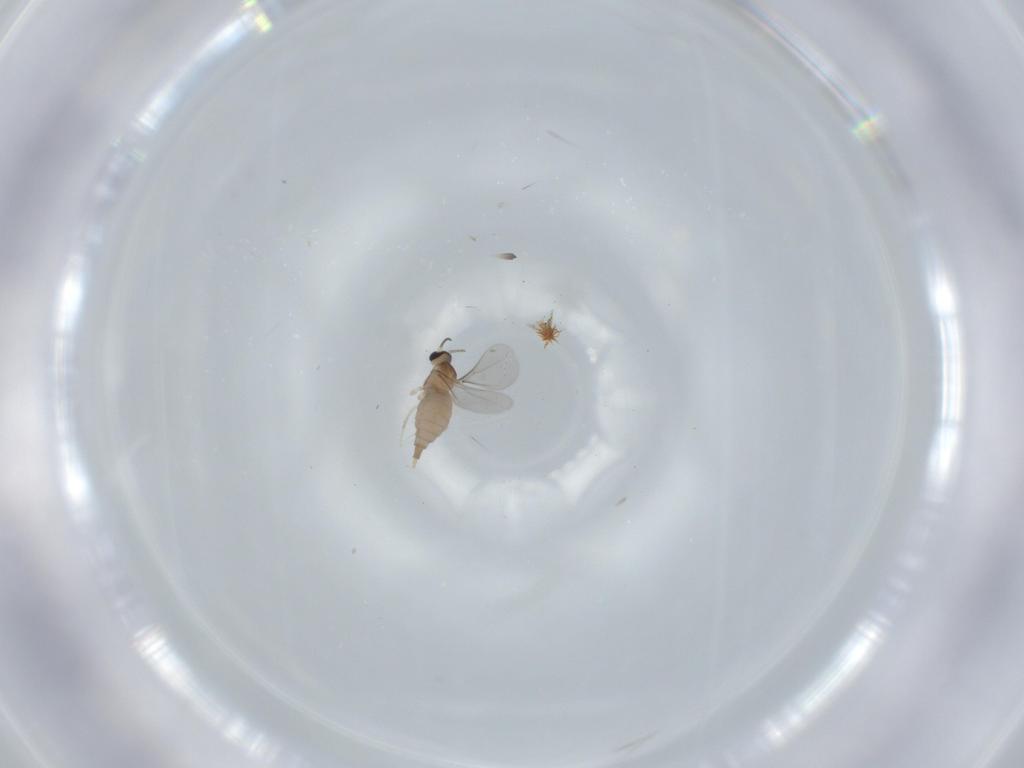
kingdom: Animalia
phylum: Arthropoda
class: Insecta
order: Diptera
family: Cecidomyiidae
